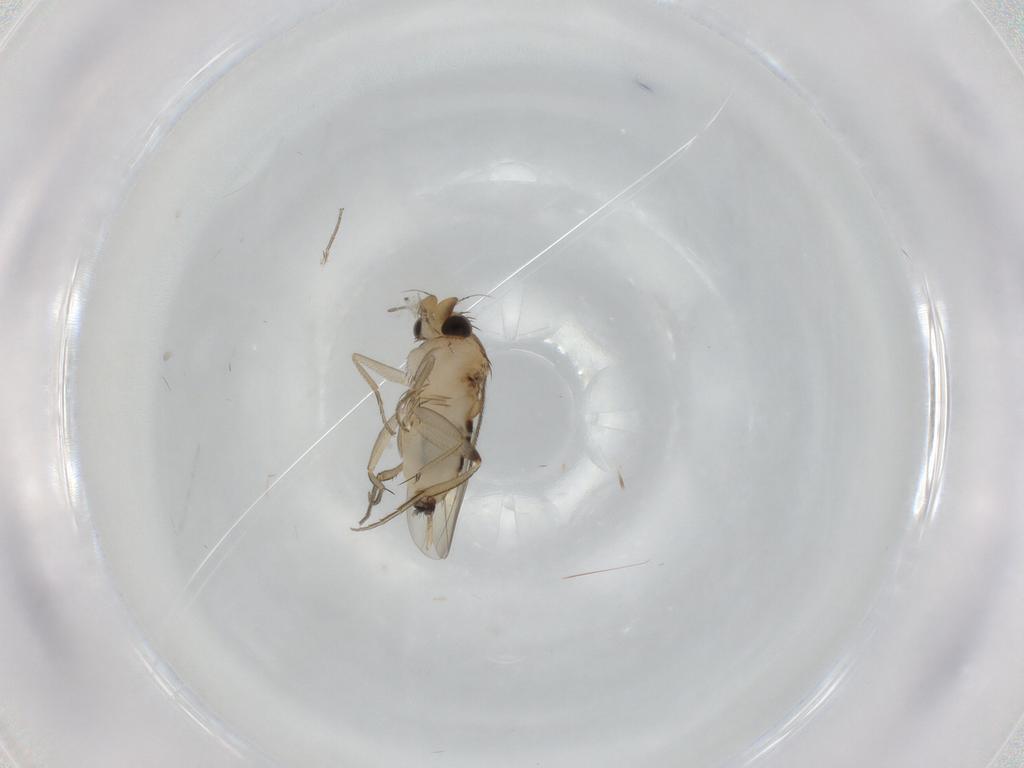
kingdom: Animalia
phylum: Arthropoda
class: Insecta
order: Diptera
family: Phoridae
